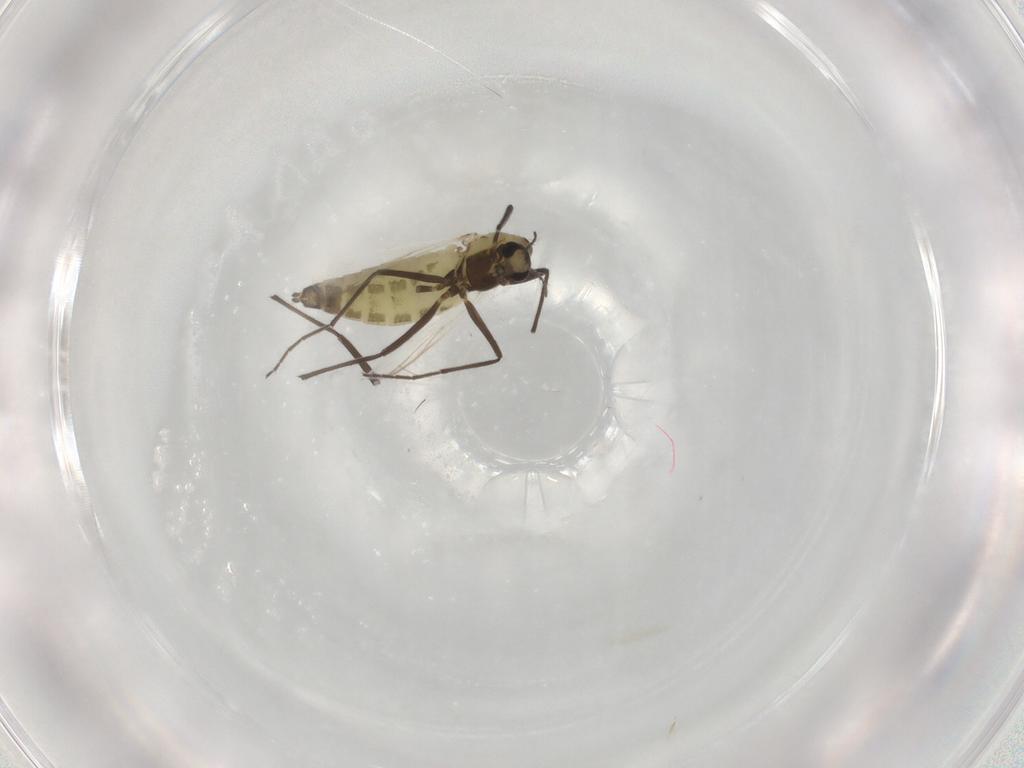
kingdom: Animalia
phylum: Arthropoda
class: Insecta
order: Diptera
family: Chironomidae
